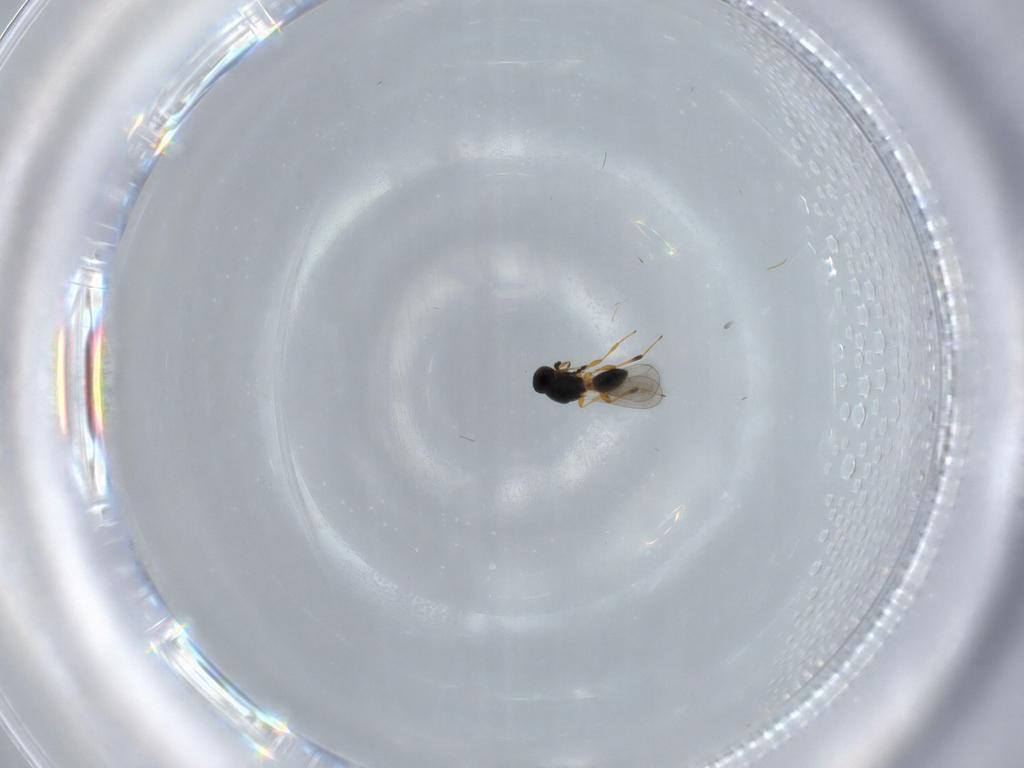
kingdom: Animalia
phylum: Arthropoda
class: Insecta
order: Hymenoptera
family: Platygastridae
